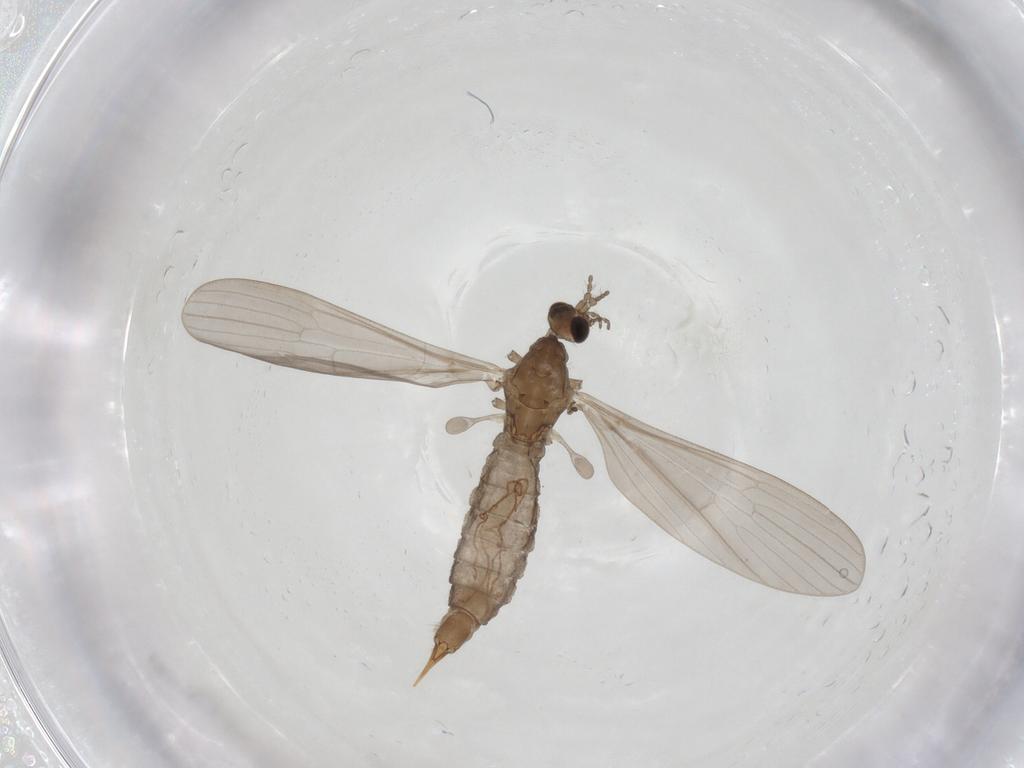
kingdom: Animalia
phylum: Arthropoda
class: Insecta
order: Diptera
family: Limoniidae
